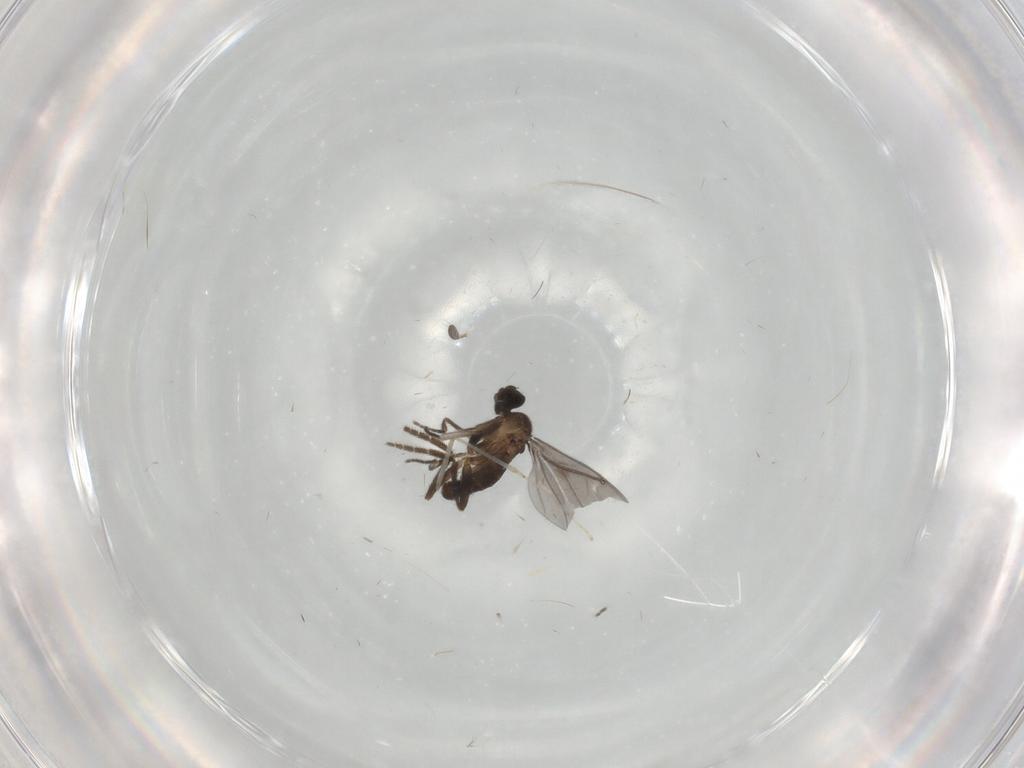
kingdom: Animalia
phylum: Arthropoda
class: Insecta
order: Diptera
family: Phoridae
